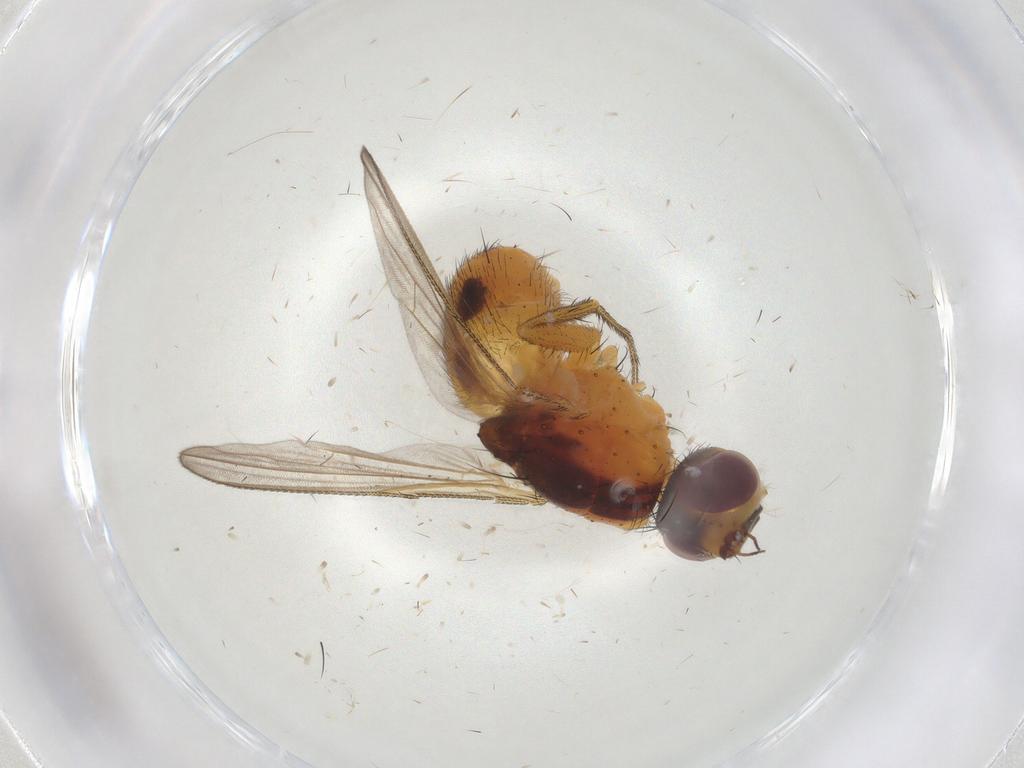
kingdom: Animalia
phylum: Arthropoda
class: Insecta
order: Diptera
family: Muscidae
